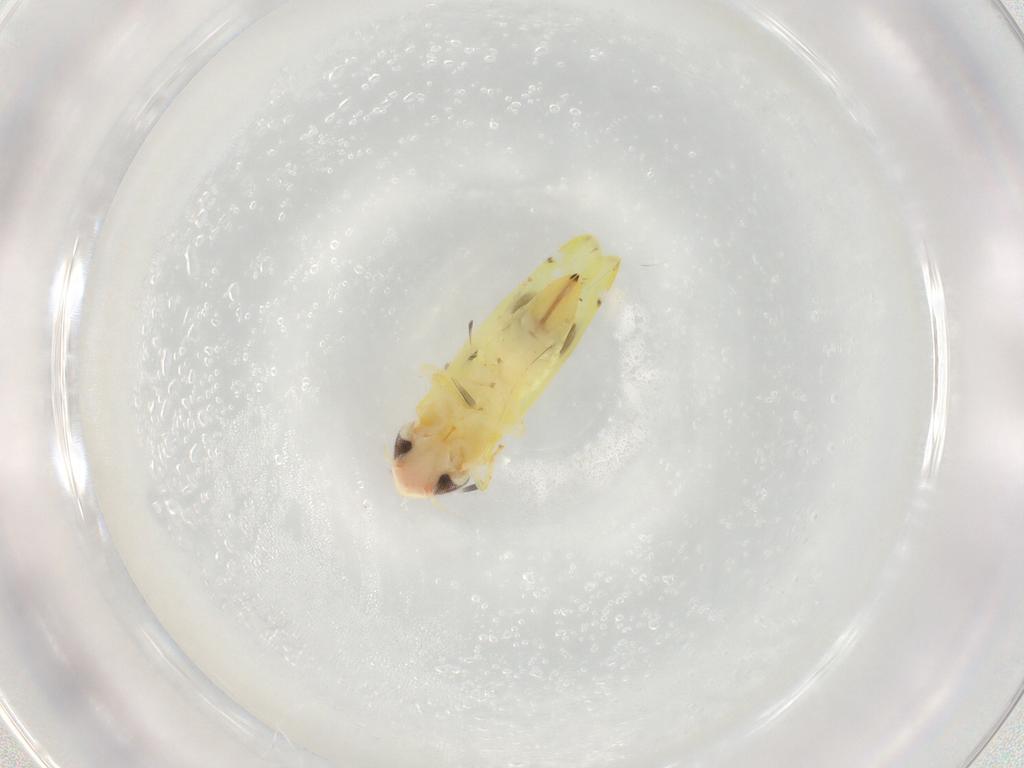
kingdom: Animalia
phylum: Arthropoda
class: Insecta
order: Hemiptera
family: Cicadellidae
